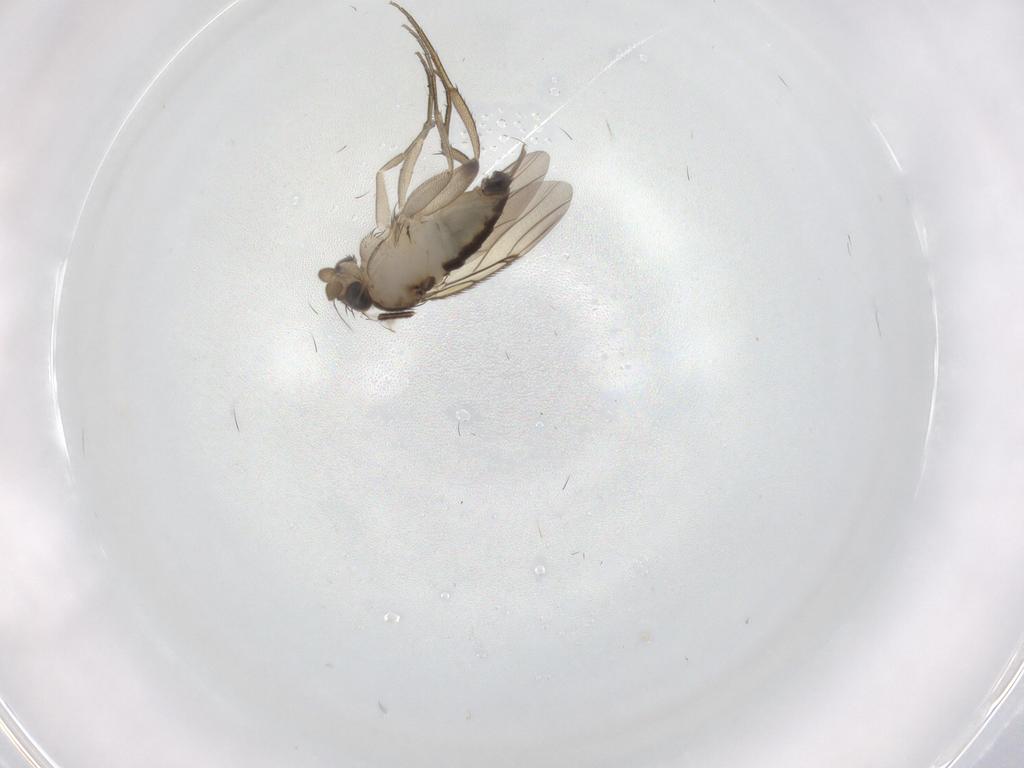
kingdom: Animalia
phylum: Arthropoda
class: Insecta
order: Diptera
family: Phoridae
